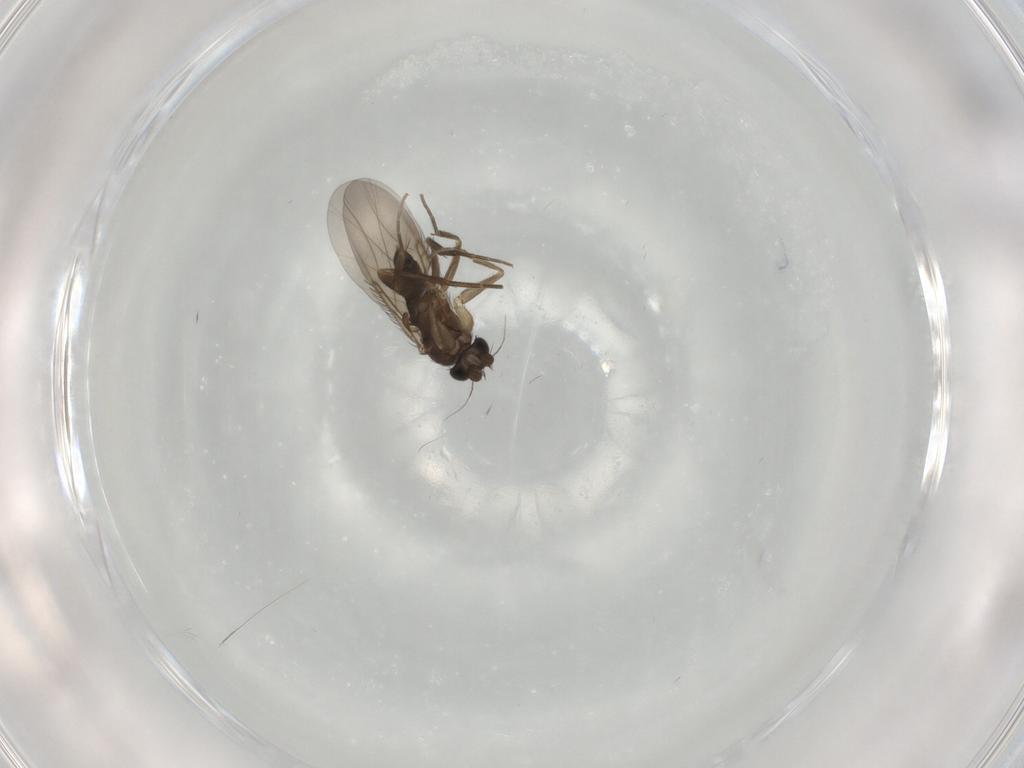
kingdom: Animalia
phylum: Arthropoda
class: Insecta
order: Diptera
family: Phoridae
